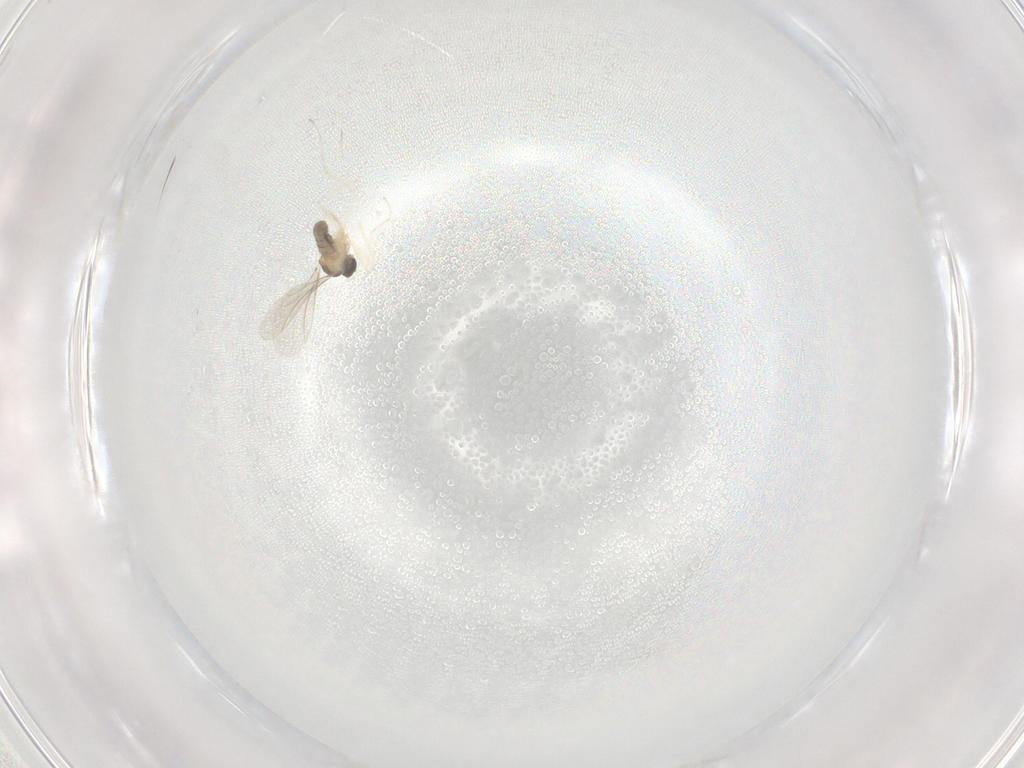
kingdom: Animalia
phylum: Arthropoda
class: Insecta
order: Diptera
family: Cecidomyiidae
